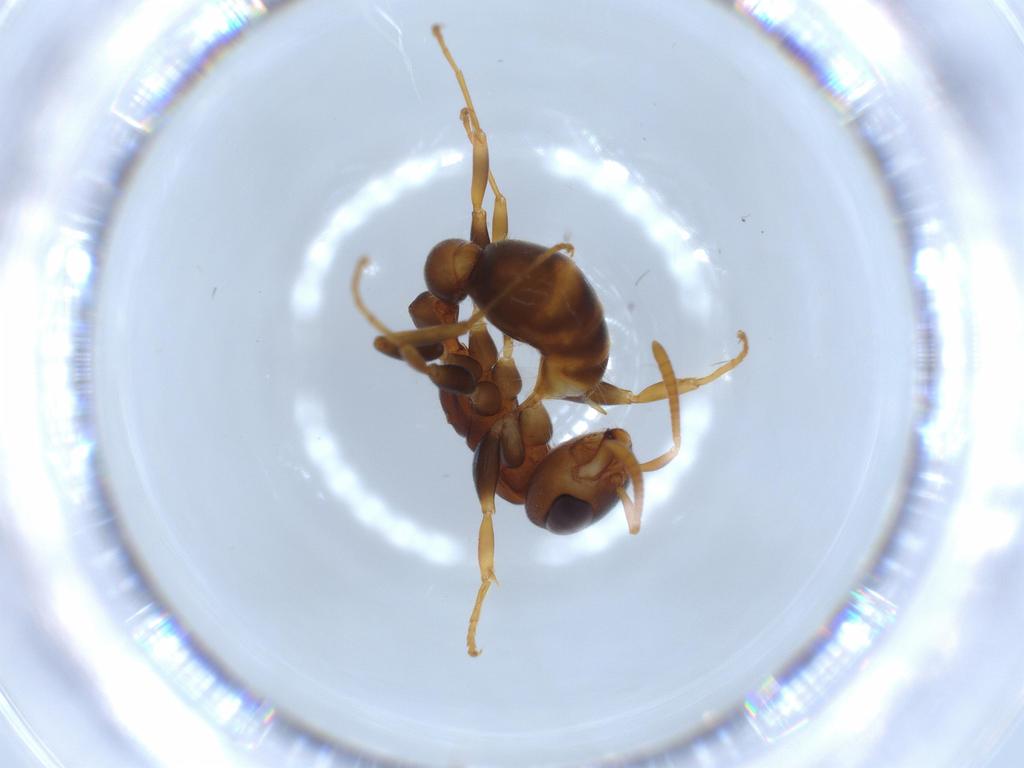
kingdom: Animalia
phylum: Arthropoda
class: Insecta
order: Hymenoptera
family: Formicidae
